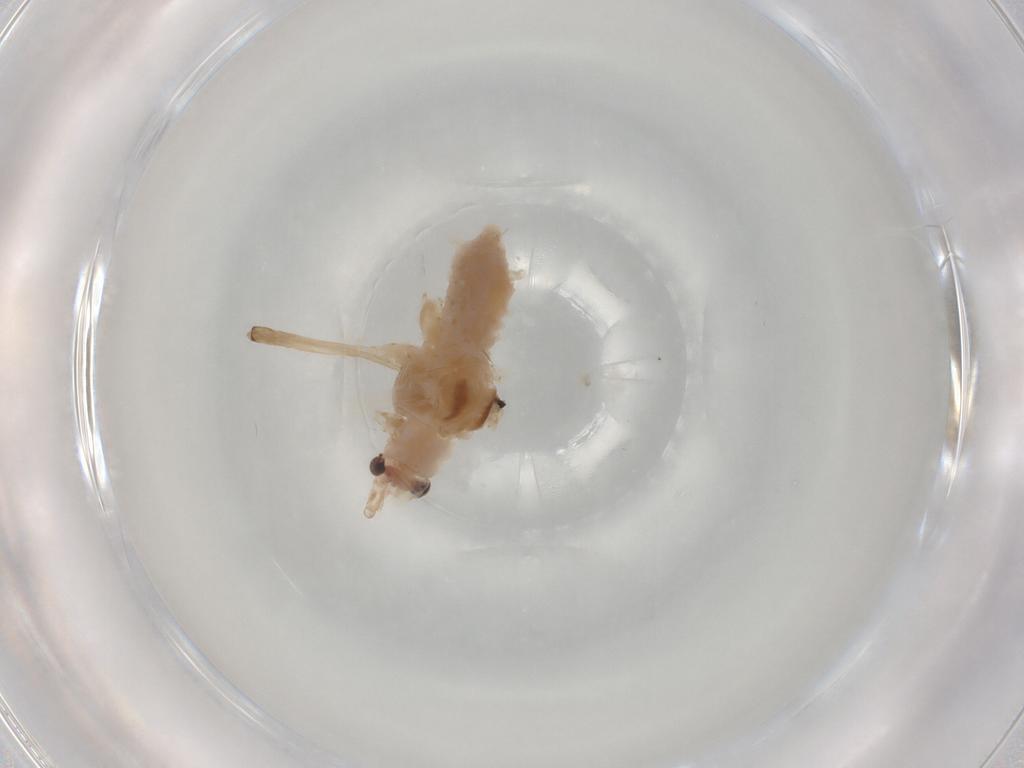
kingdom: Animalia
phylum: Arthropoda
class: Insecta
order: Hemiptera
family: Aphididae
